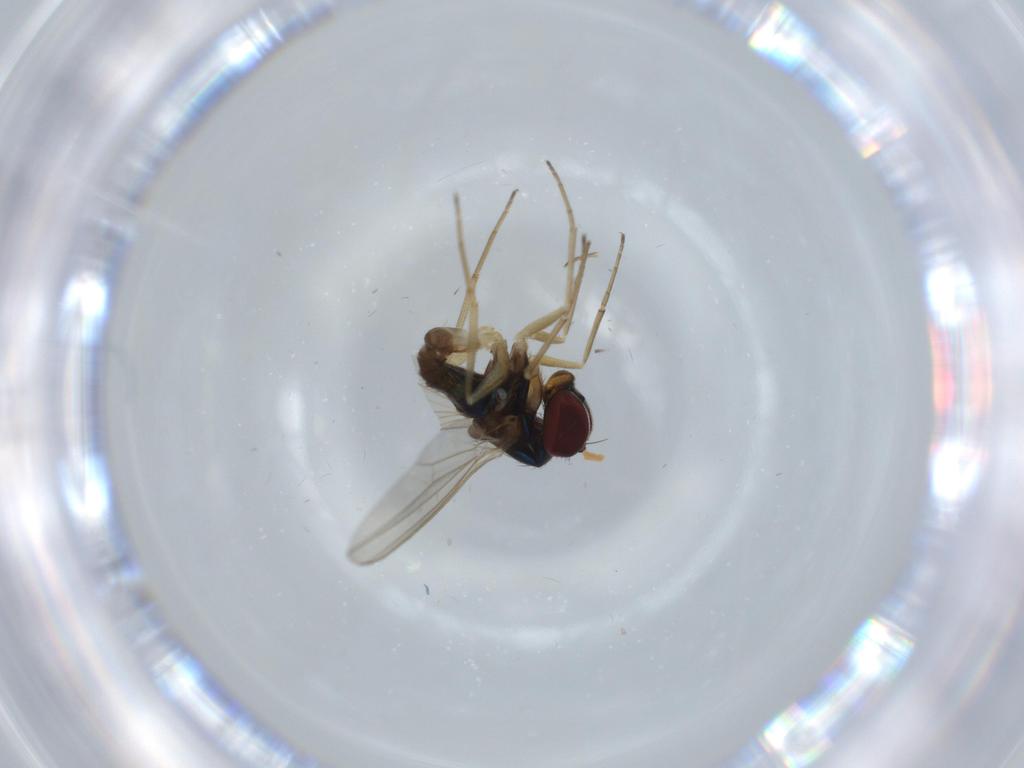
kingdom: Animalia
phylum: Arthropoda
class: Insecta
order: Diptera
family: Dolichopodidae
